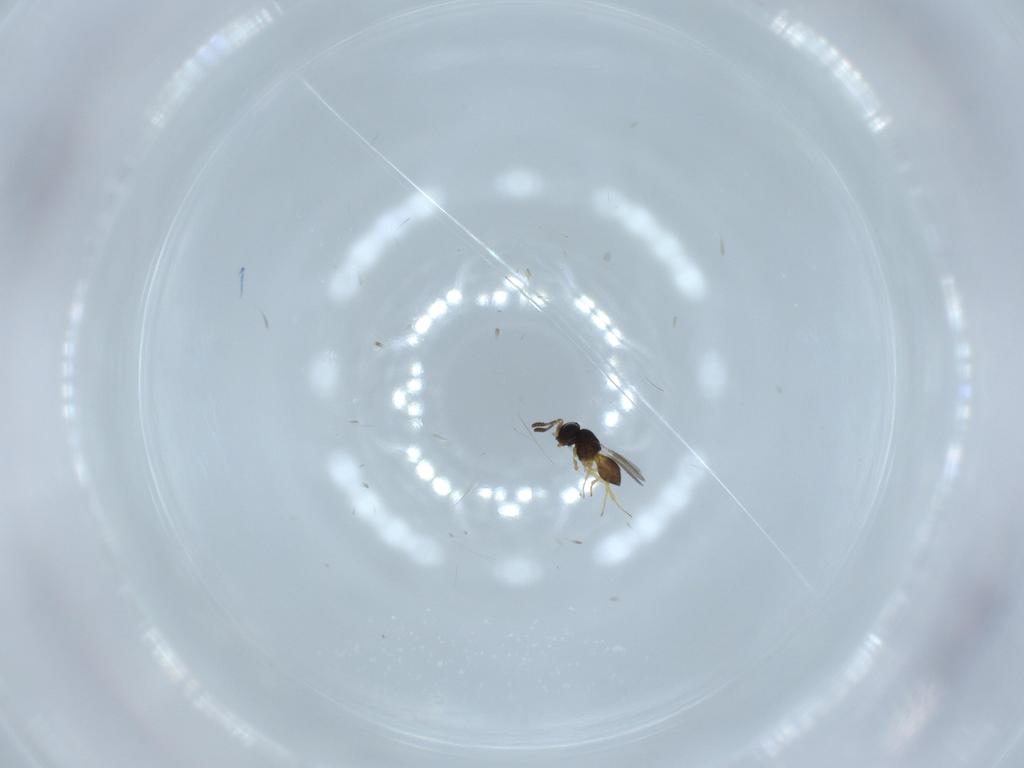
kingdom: Animalia
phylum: Arthropoda
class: Insecta
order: Hymenoptera
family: Scelionidae
